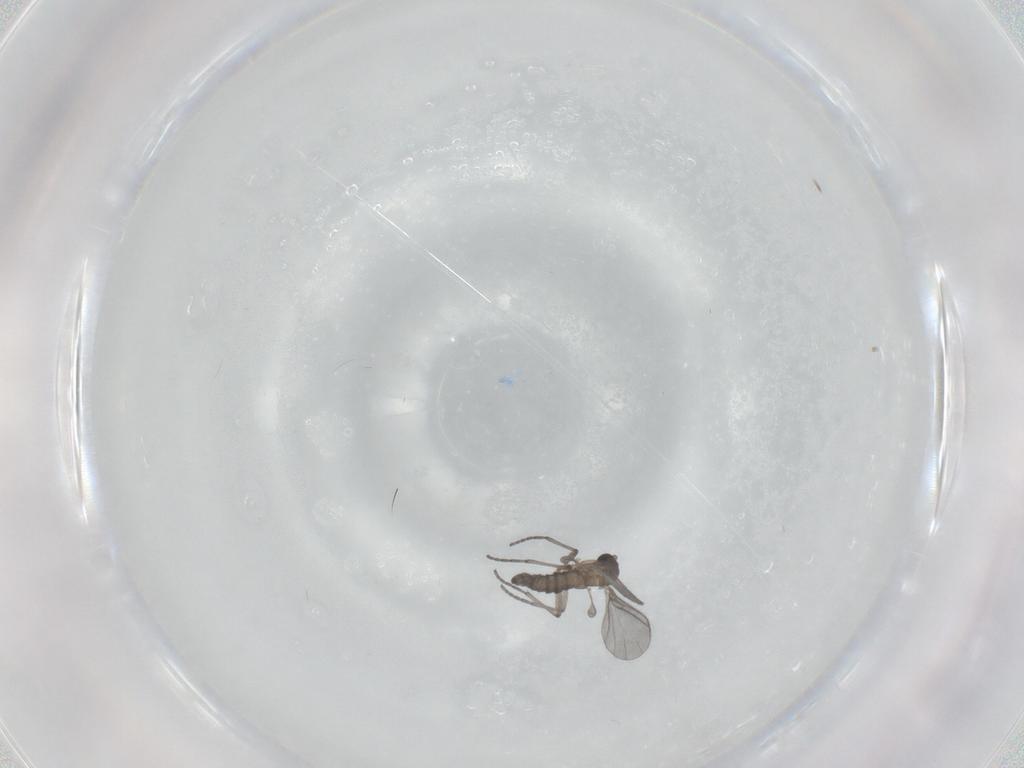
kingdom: Animalia
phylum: Arthropoda
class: Insecta
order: Diptera
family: Sciaridae
